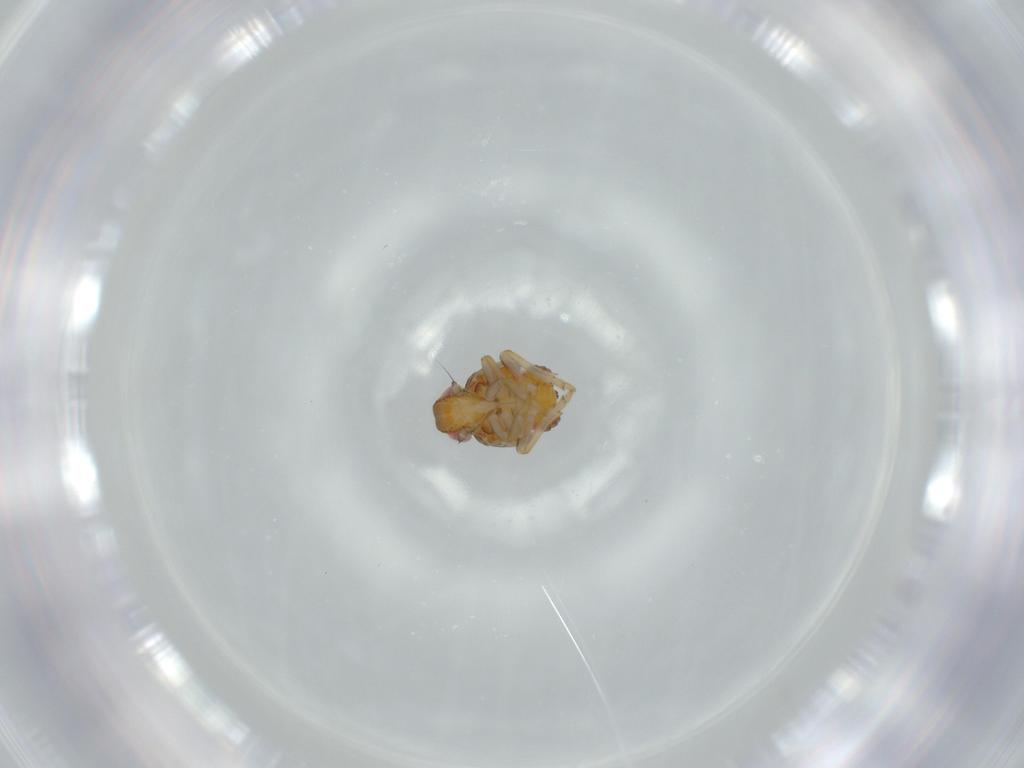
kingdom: Animalia
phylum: Arthropoda
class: Insecta
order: Hemiptera
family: Issidae
